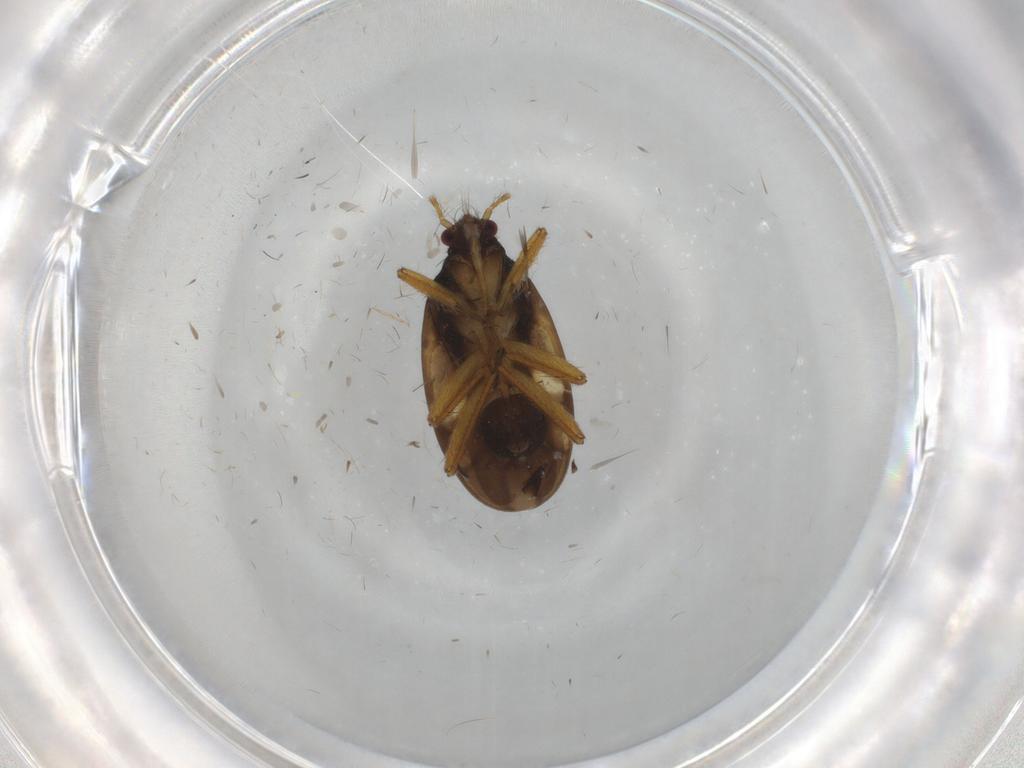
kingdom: Animalia
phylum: Arthropoda
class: Insecta
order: Hemiptera
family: Ceratocombidae
